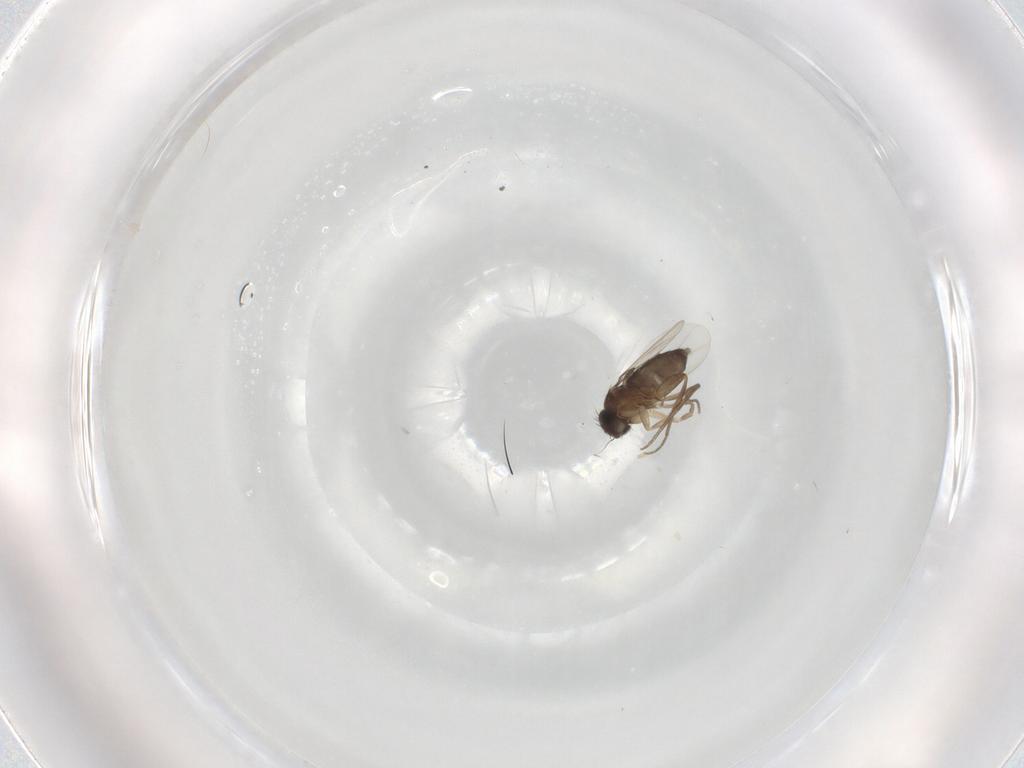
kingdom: Animalia
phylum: Arthropoda
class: Insecta
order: Diptera
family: Phoridae
